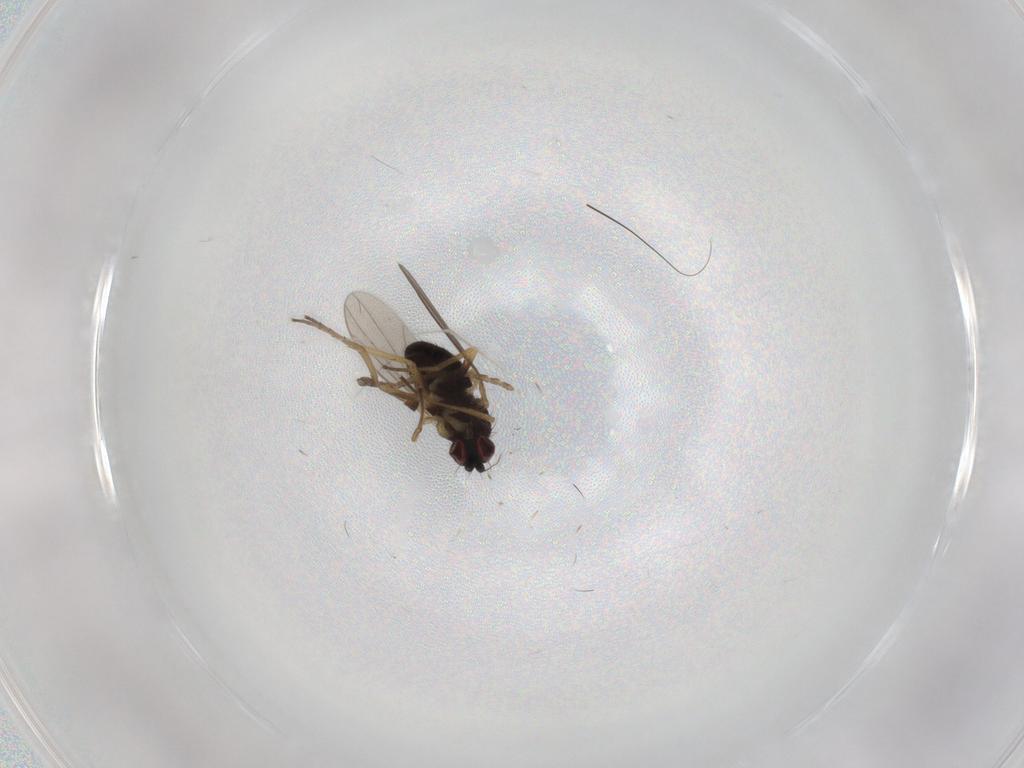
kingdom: Animalia
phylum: Arthropoda
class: Insecta
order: Diptera
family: Dolichopodidae
